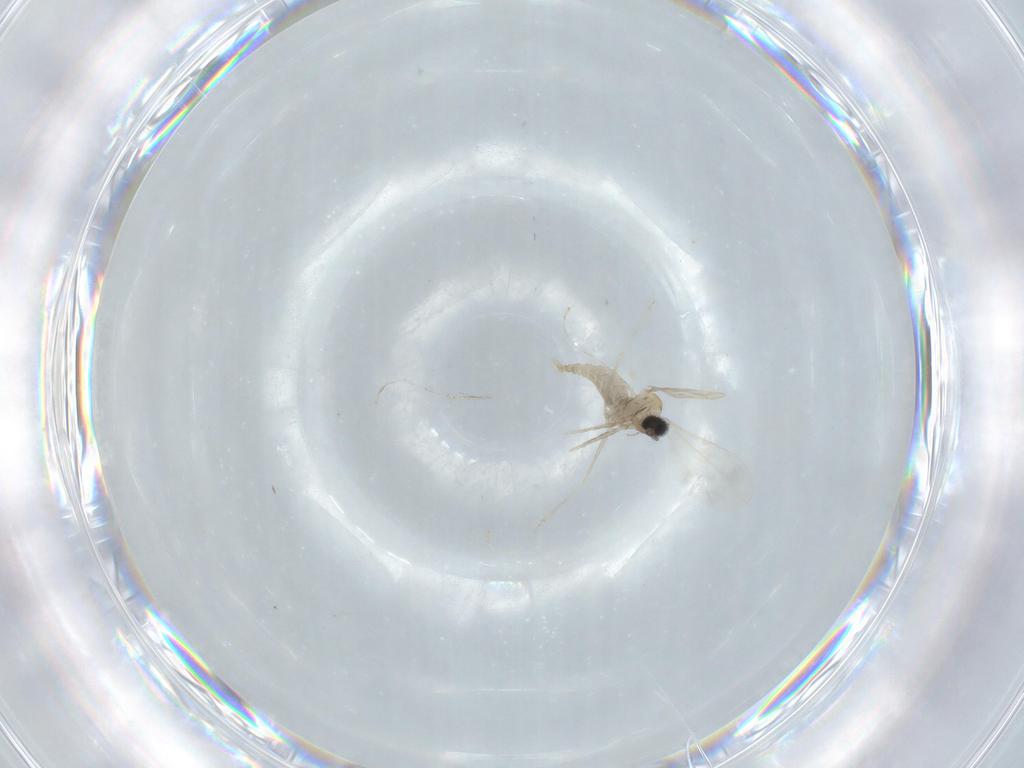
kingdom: Animalia
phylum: Arthropoda
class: Insecta
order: Diptera
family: Cecidomyiidae
